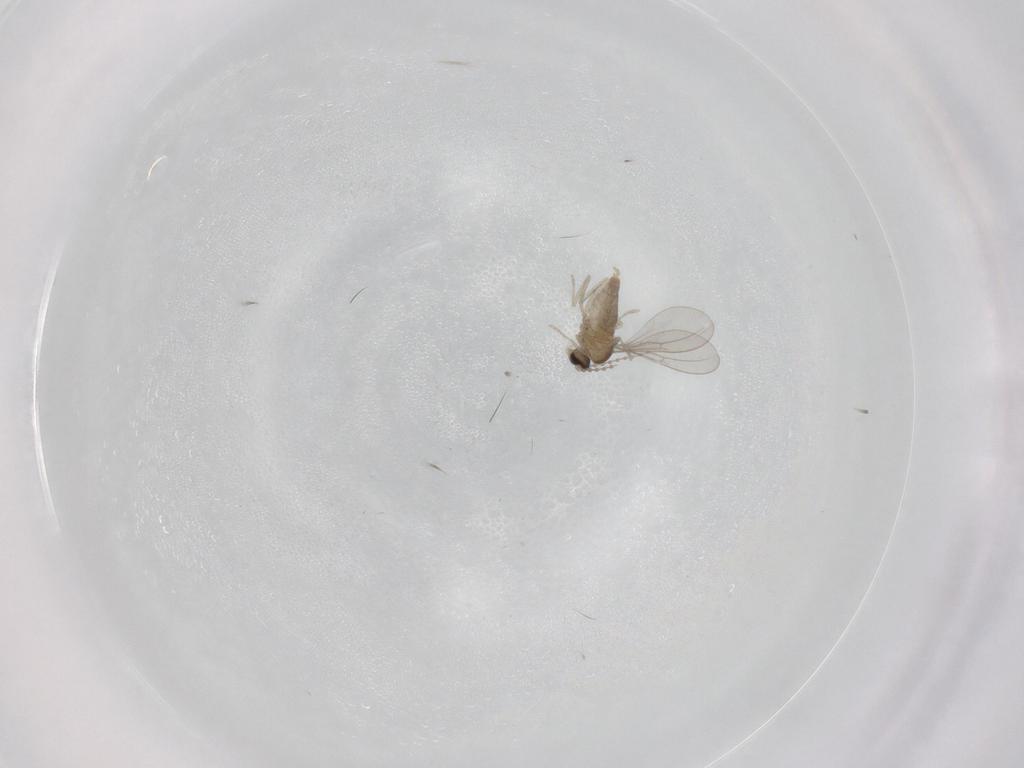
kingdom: Animalia
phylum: Arthropoda
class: Insecta
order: Diptera
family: Cecidomyiidae
